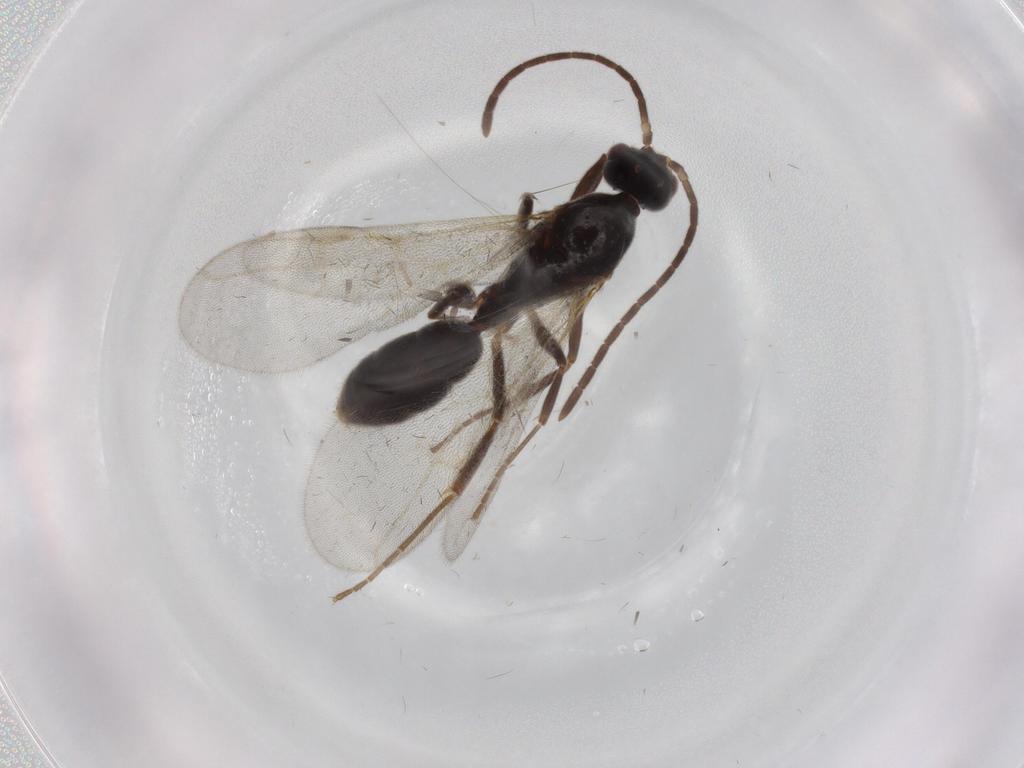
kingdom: Animalia
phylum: Arthropoda
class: Insecta
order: Hymenoptera
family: Formicidae
